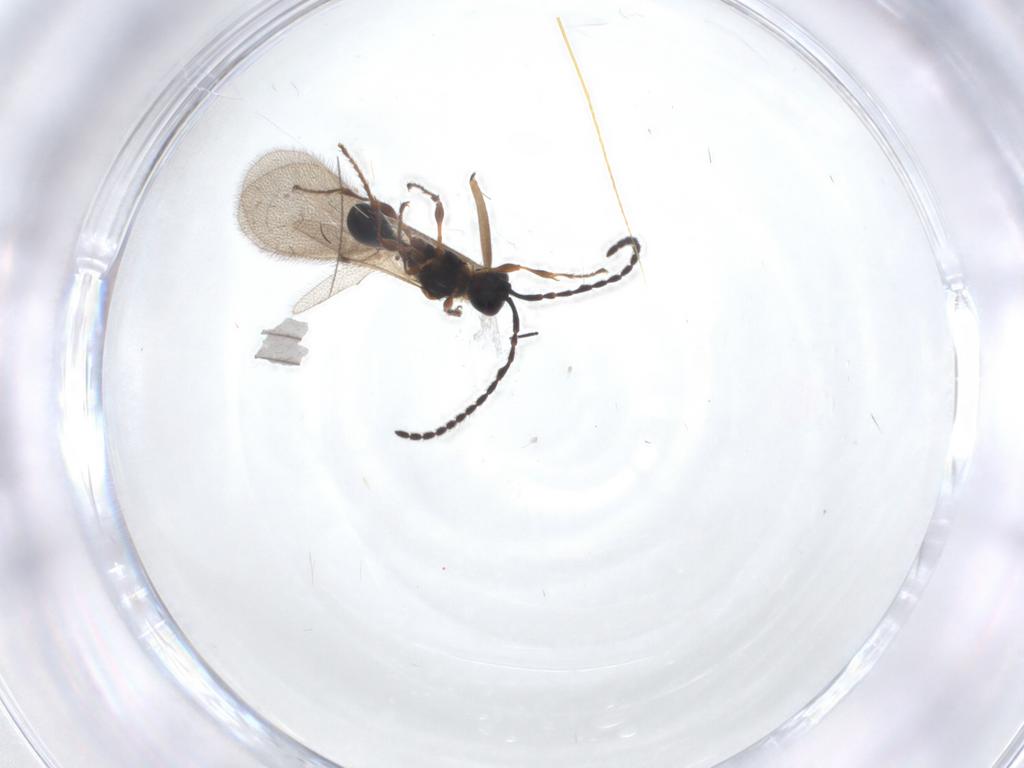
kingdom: Animalia
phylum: Arthropoda
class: Insecta
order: Hymenoptera
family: Diapriidae
